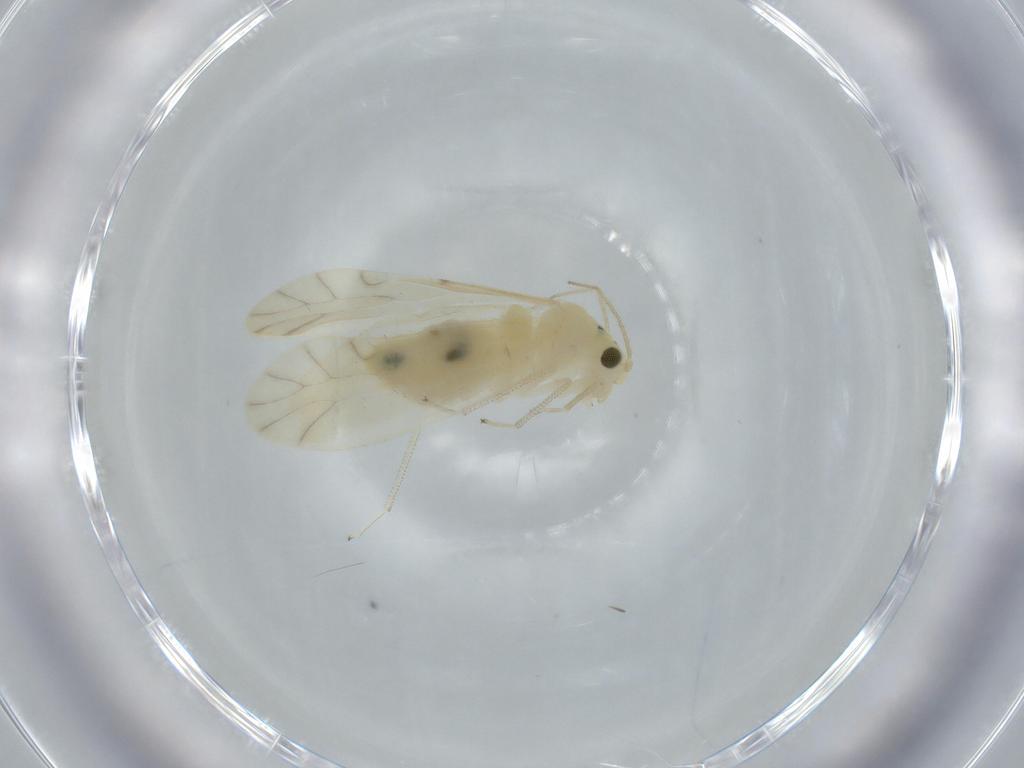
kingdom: Animalia
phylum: Arthropoda
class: Insecta
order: Psocodea
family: Caeciliusidae
